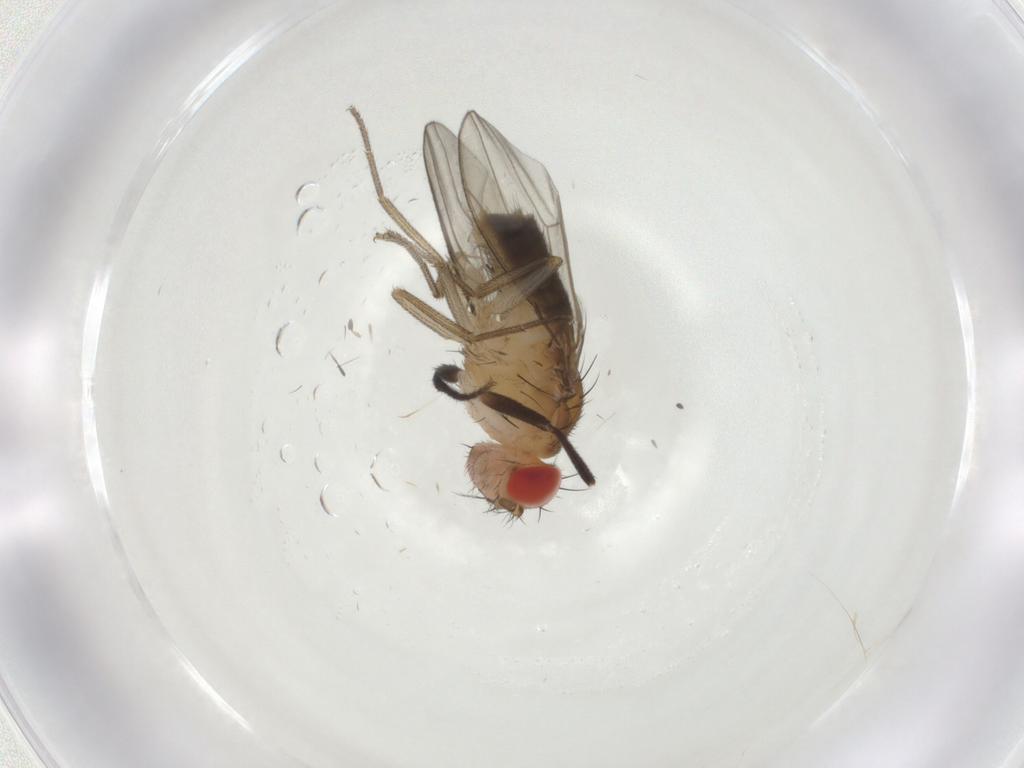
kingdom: Animalia
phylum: Arthropoda
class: Insecta
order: Diptera
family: Drosophilidae
